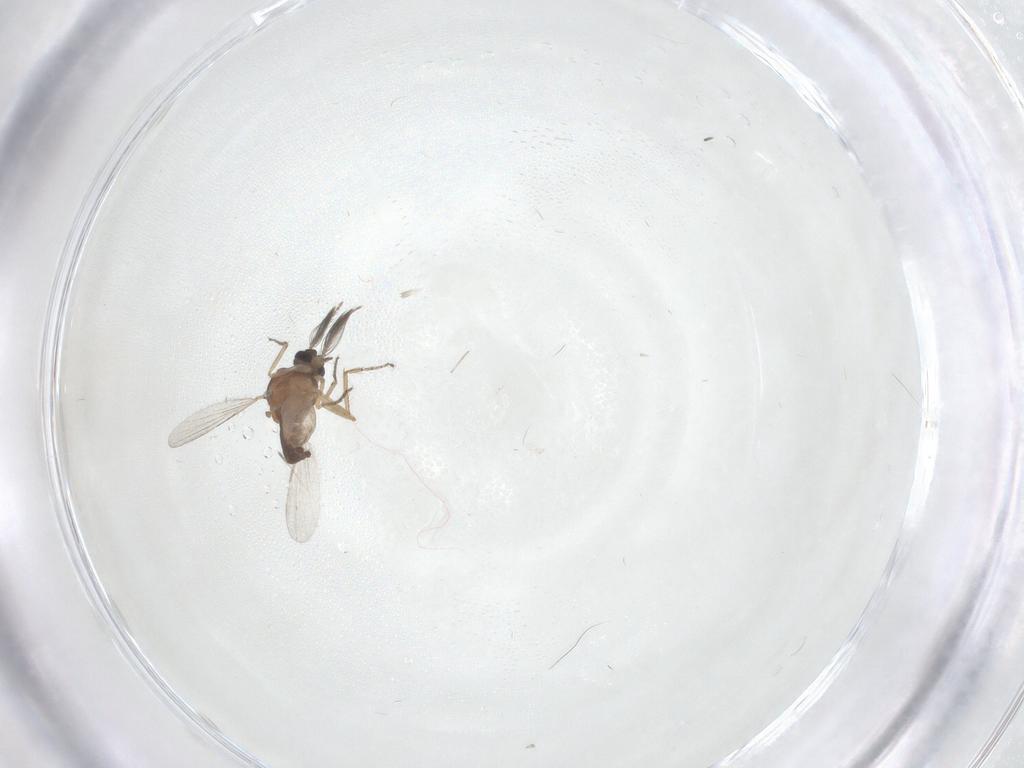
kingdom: Animalia
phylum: Arthropoda
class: Insecta
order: Diptera
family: Ceratopogonidae
